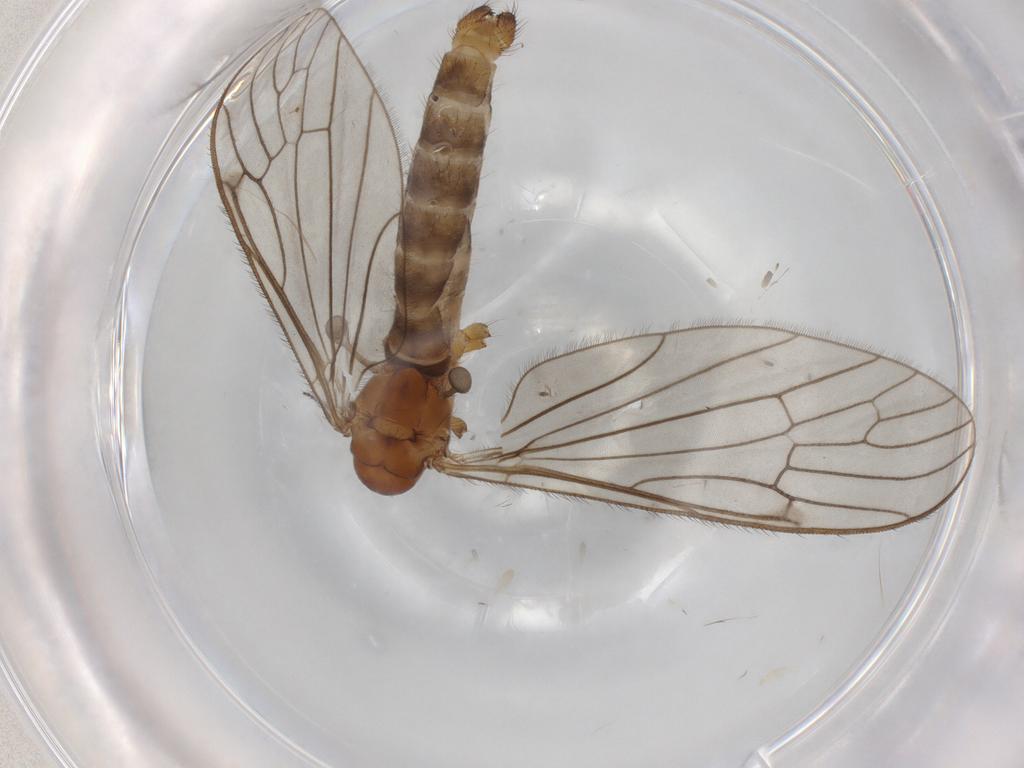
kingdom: Animalia
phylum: Arthropoda
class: Insecta
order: Diptera
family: Limoniidae
